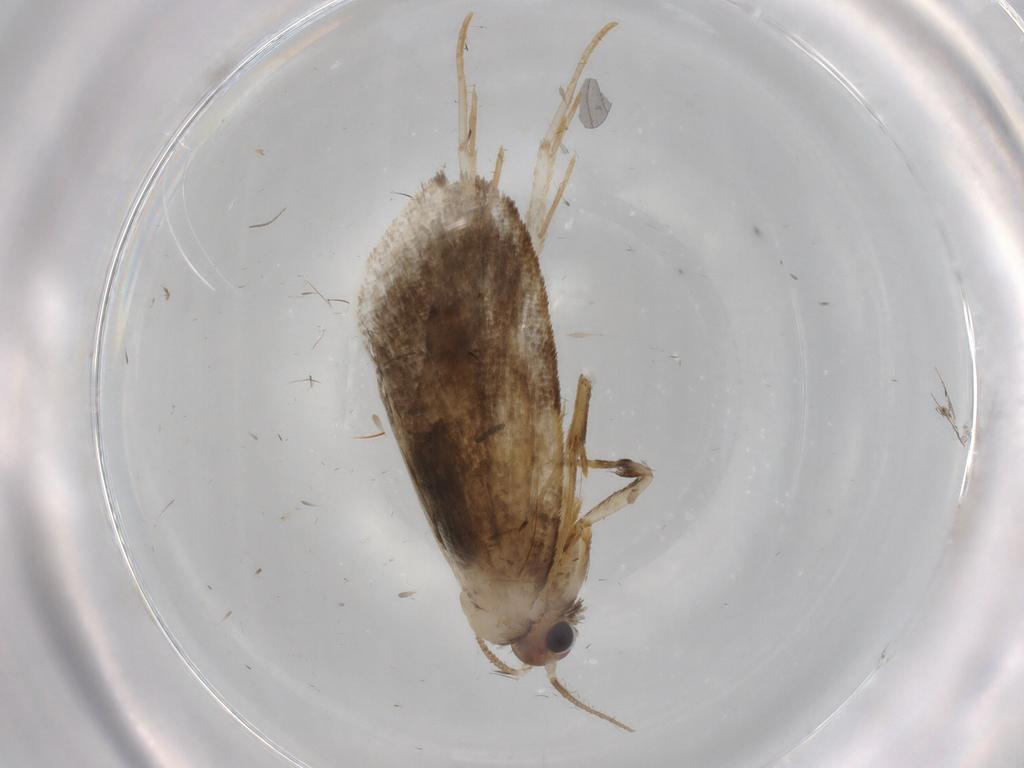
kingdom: Animalia
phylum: Arthropoda
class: Insecta
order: Lepidoptera
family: Psychidae
